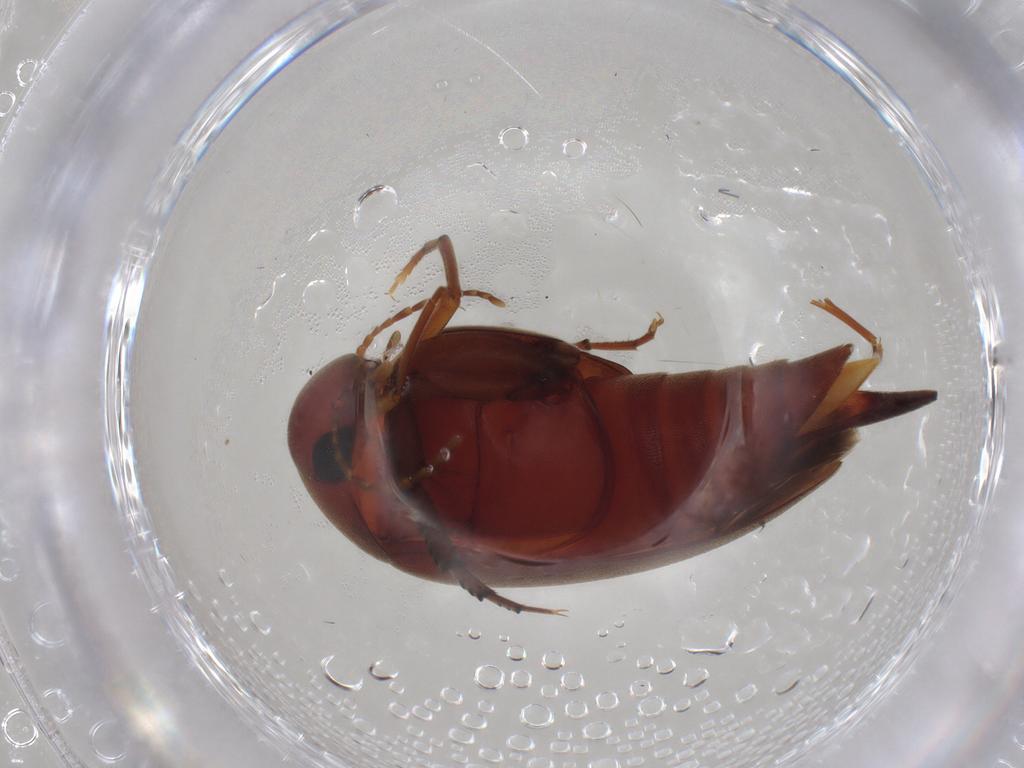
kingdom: Animalia
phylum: Arthropoda
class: Insecta
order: Coleoptera
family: Mordellidae
